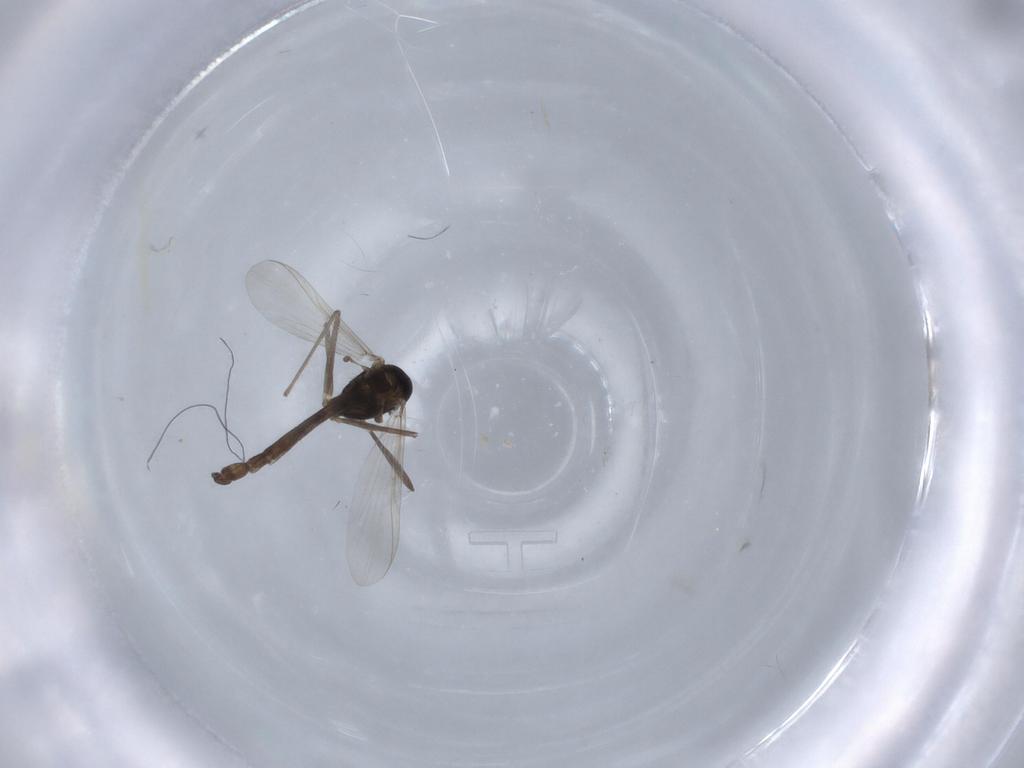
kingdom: Animalia
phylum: Arthropoda
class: Insecta
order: Diptera
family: Chironomidae
